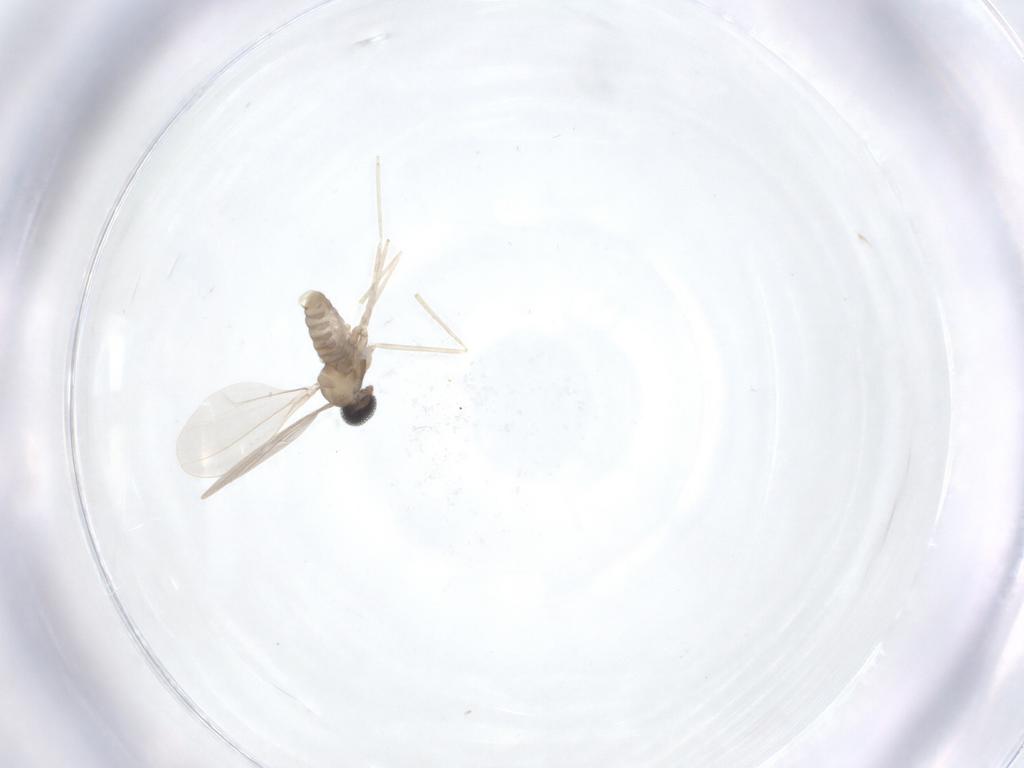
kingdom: Animalia
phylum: Arthropoda
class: Insecta
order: Diptera
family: Cecidomyiidae
